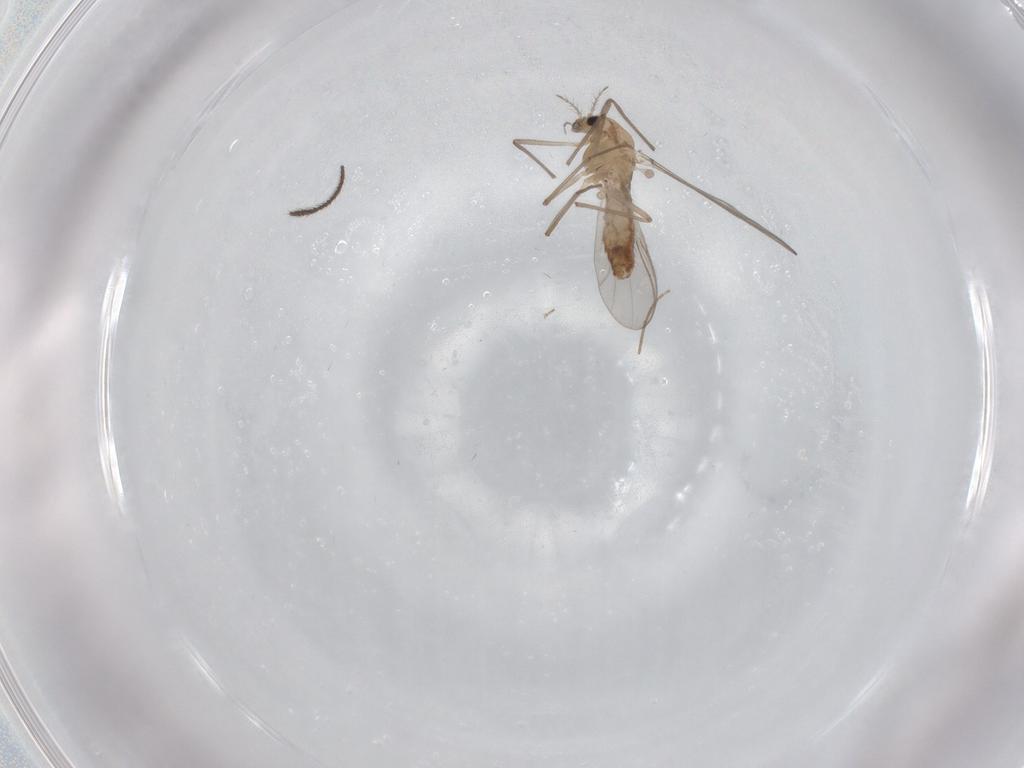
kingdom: Animalia
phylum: Arthropoda
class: Insecta
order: Diptera
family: Chironomidae
